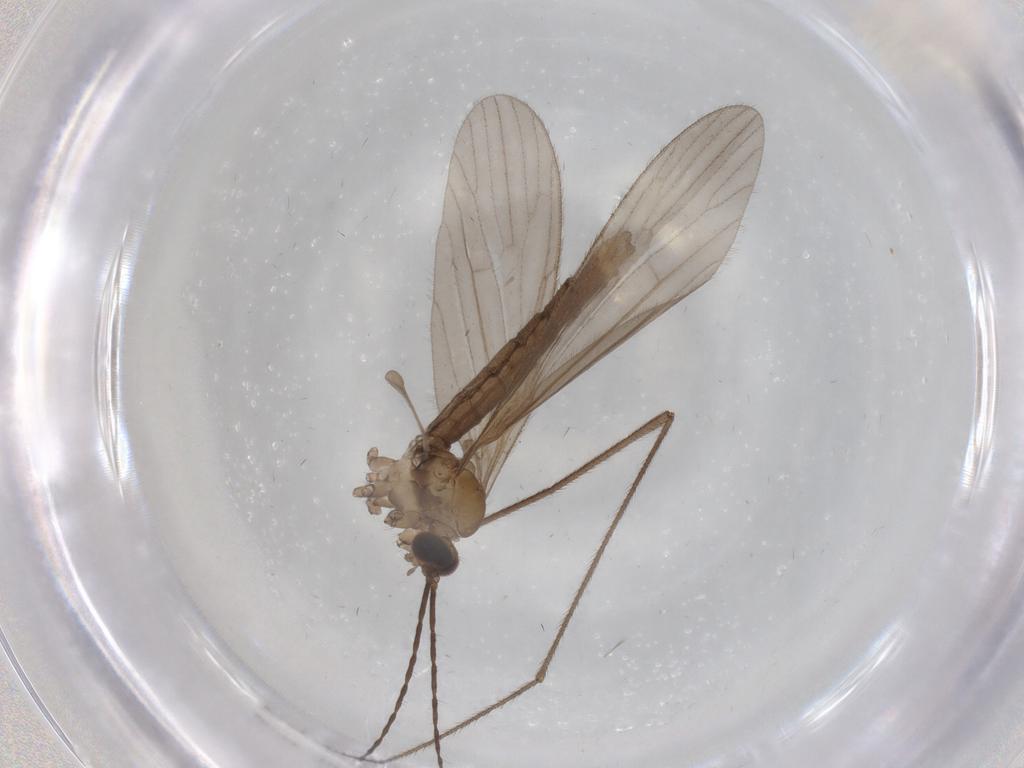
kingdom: Animalia
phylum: Arthropoda
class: Insecta
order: Diptera
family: Limoniidae
